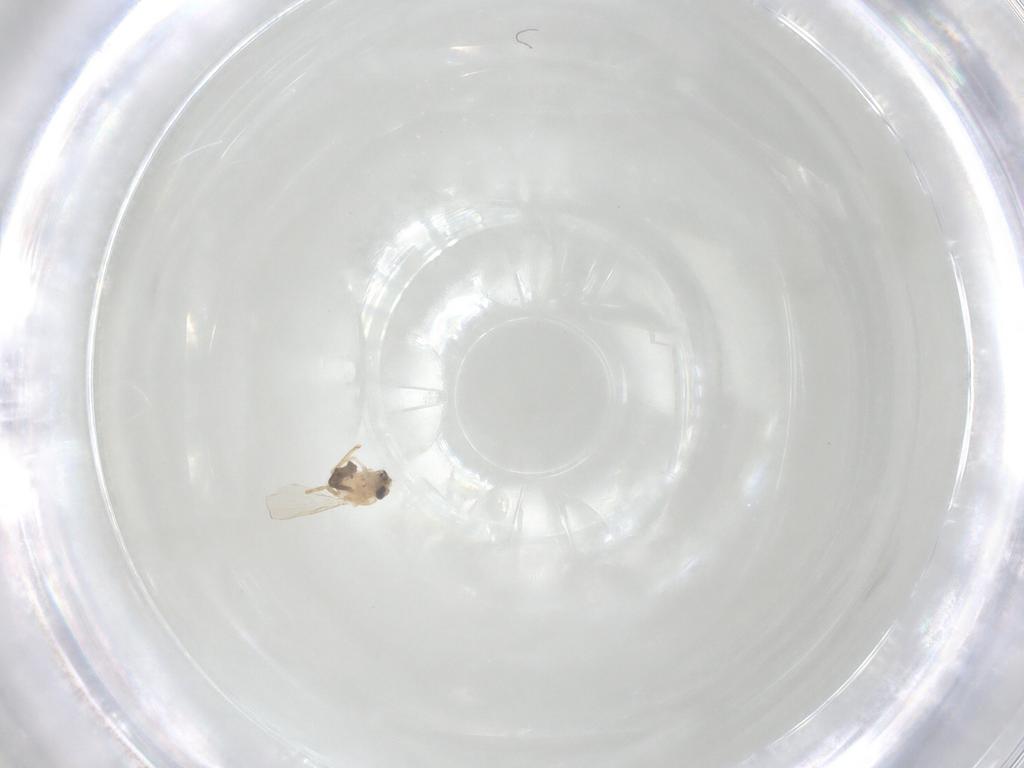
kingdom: Animalia
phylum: Arthropoda
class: Insecta
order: Diptera
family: Ceratopogonidae
